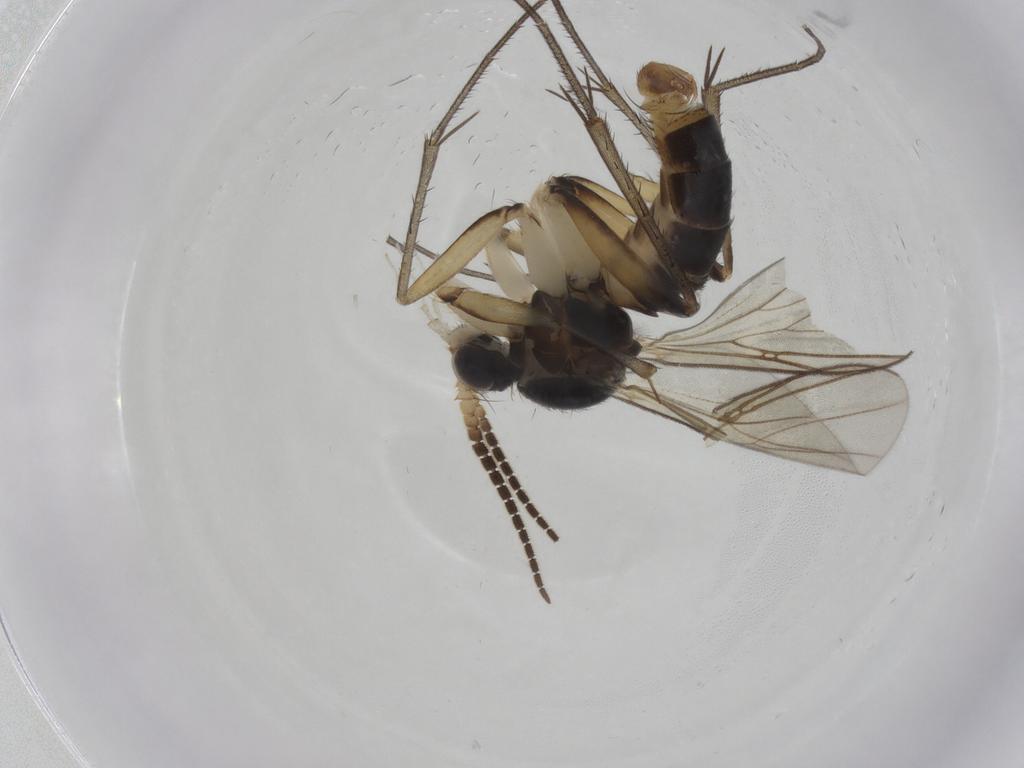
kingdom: Animalia
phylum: Arthropoda
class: Insecta
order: Diptera
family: Mycetophilidae
